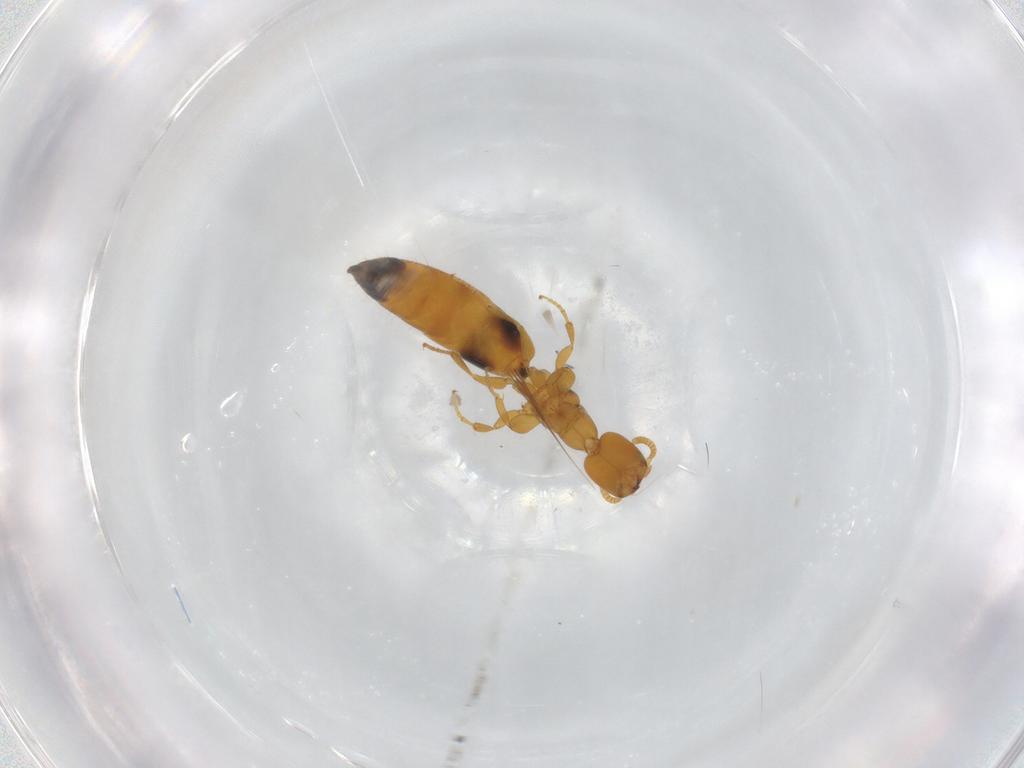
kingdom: Animalia
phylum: Arthropoda
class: Insecta
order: Hymenoptera
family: Bethylidae
